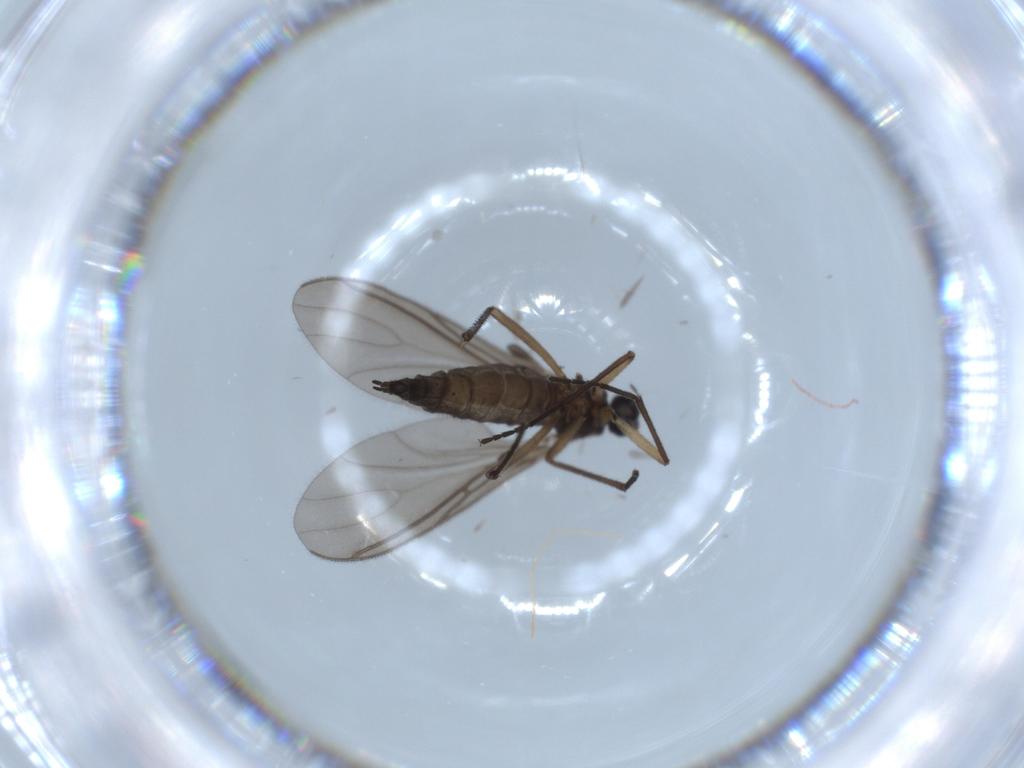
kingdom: Animalia
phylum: Arthropoda
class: Insecta
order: Diptera
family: Sciaridae
